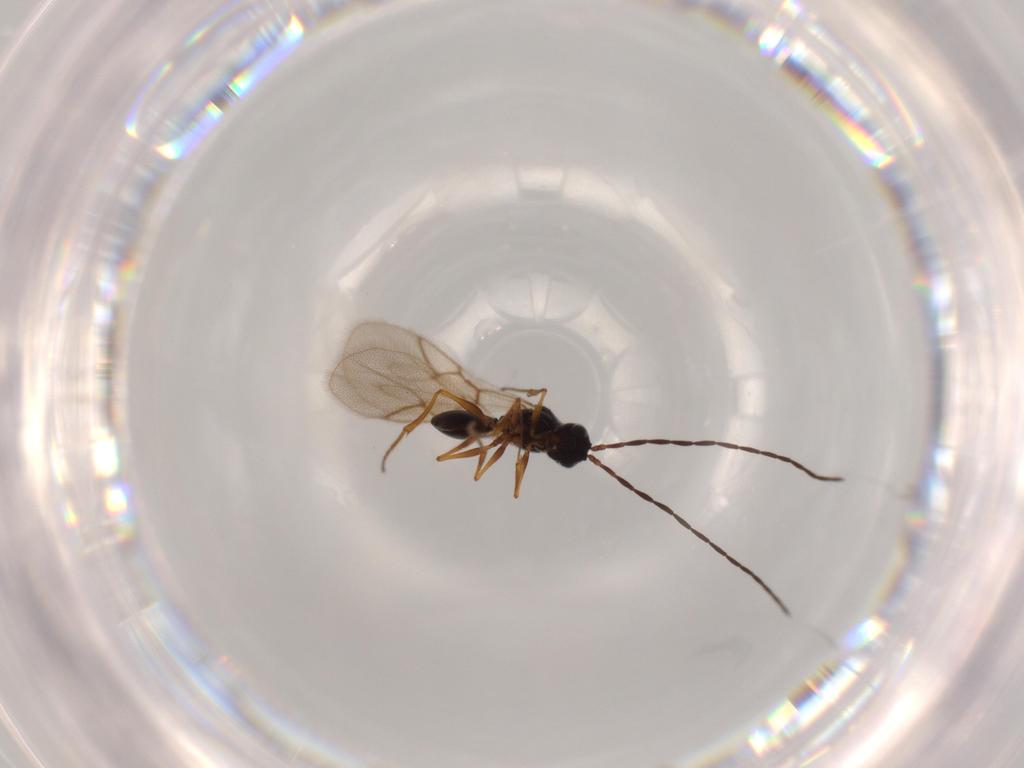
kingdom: Animalia
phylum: Arthropoda
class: Insecta
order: Hymenoptera
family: Figitidae
